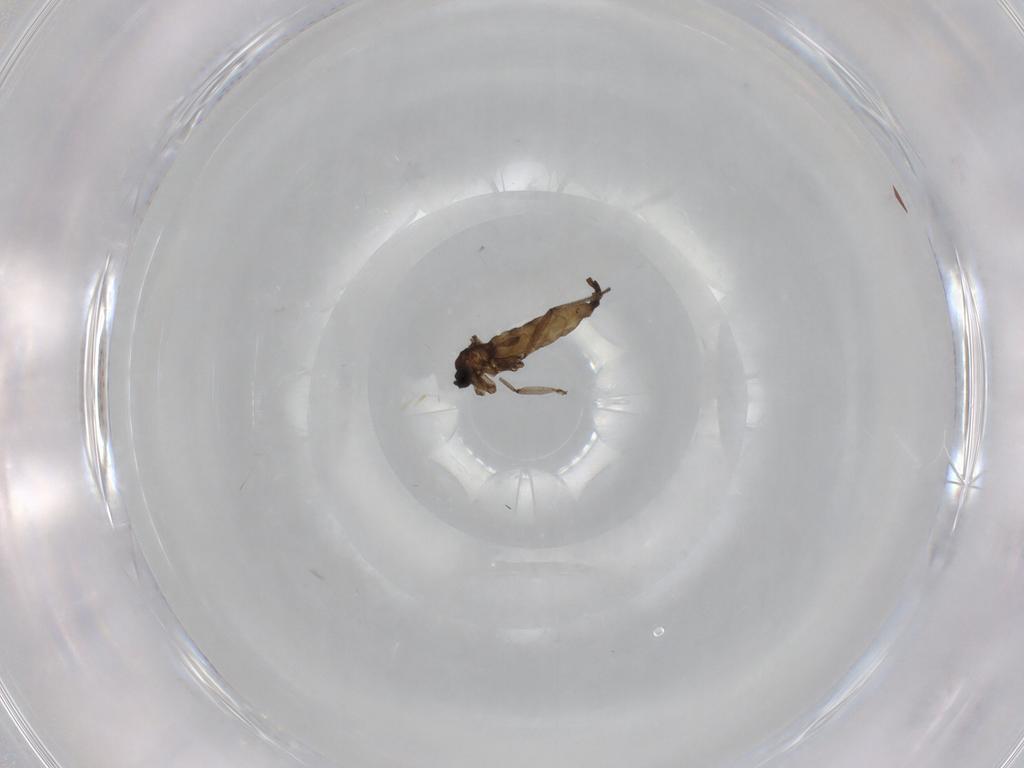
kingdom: Animalia
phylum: Arthropoda
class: Insecta
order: Diptera
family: Sciaridae
